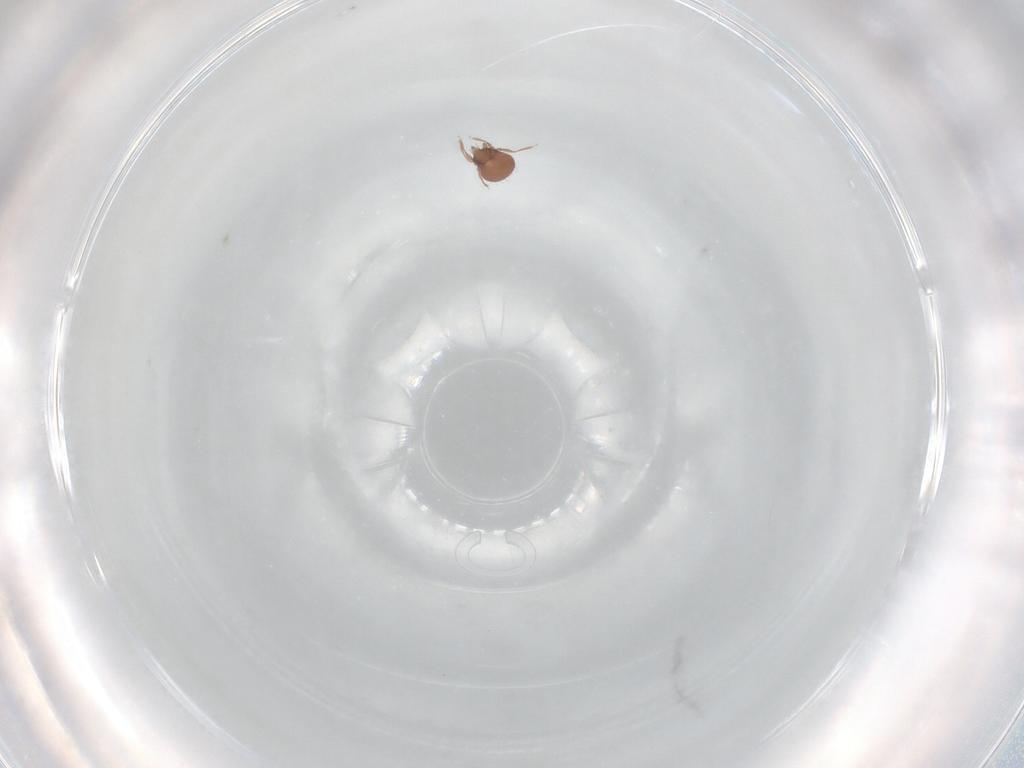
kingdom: Animalia
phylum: Arthropoda
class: Arachnida
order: Sarcoptiformes
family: Oribatulidae
